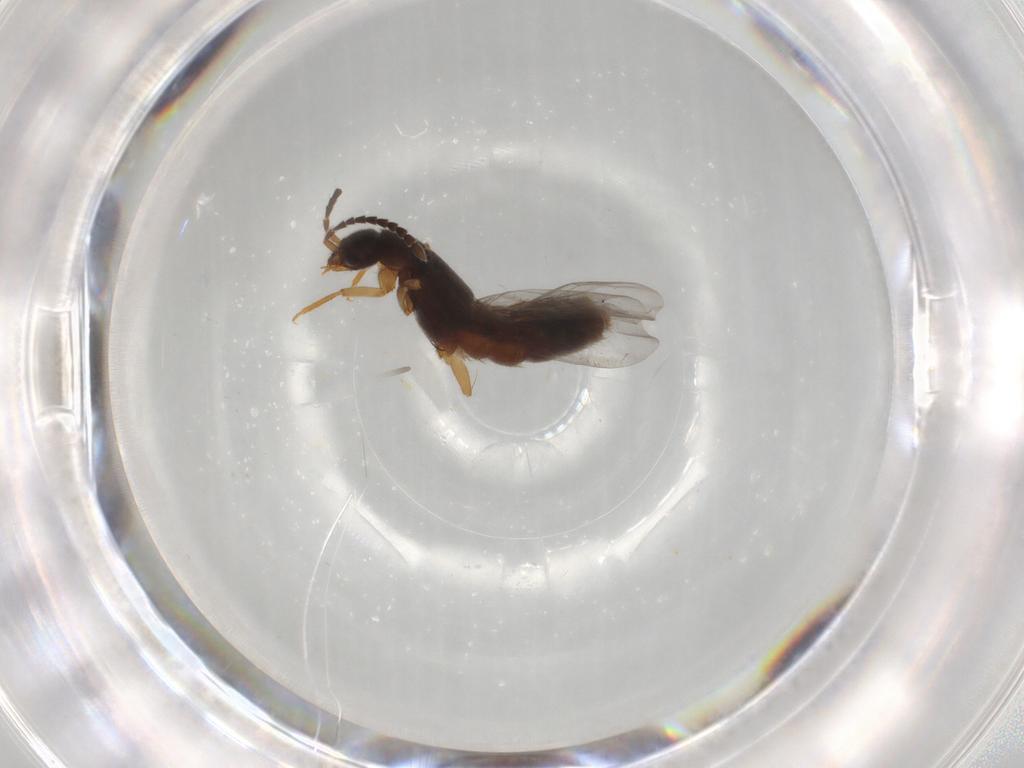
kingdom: Animalia
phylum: Arthropoda
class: Insecta
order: Coleoptera
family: Staphylinidae
